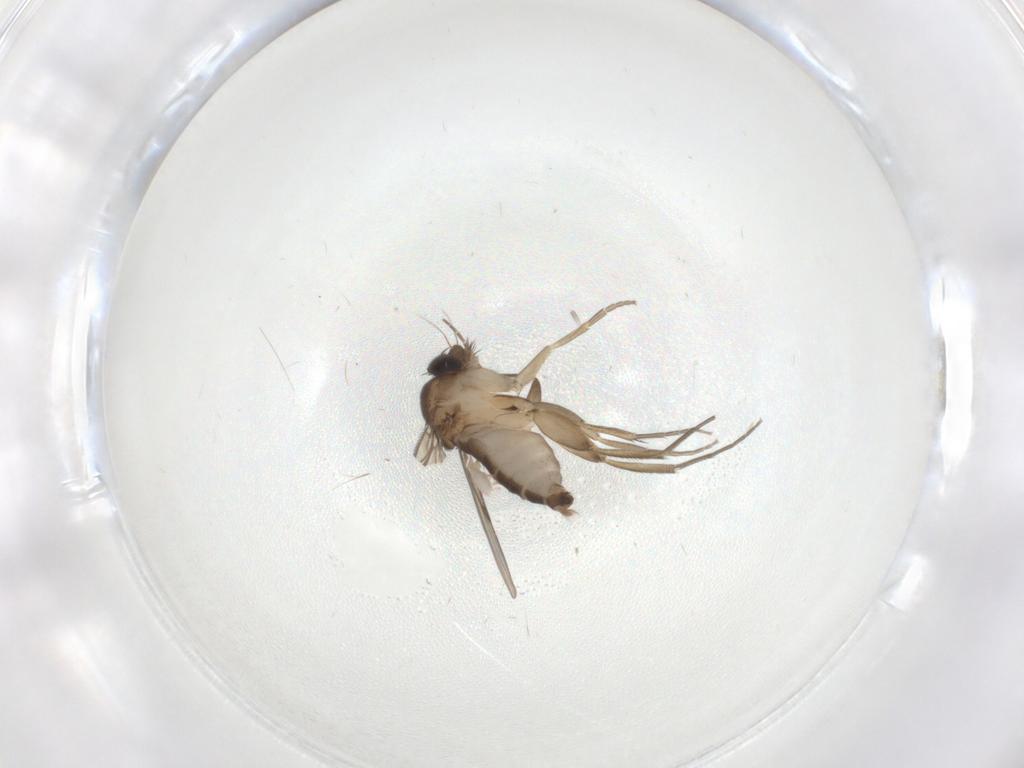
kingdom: Animalia
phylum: Arthropoda
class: Insecta
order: Diptera
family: Phoridae
